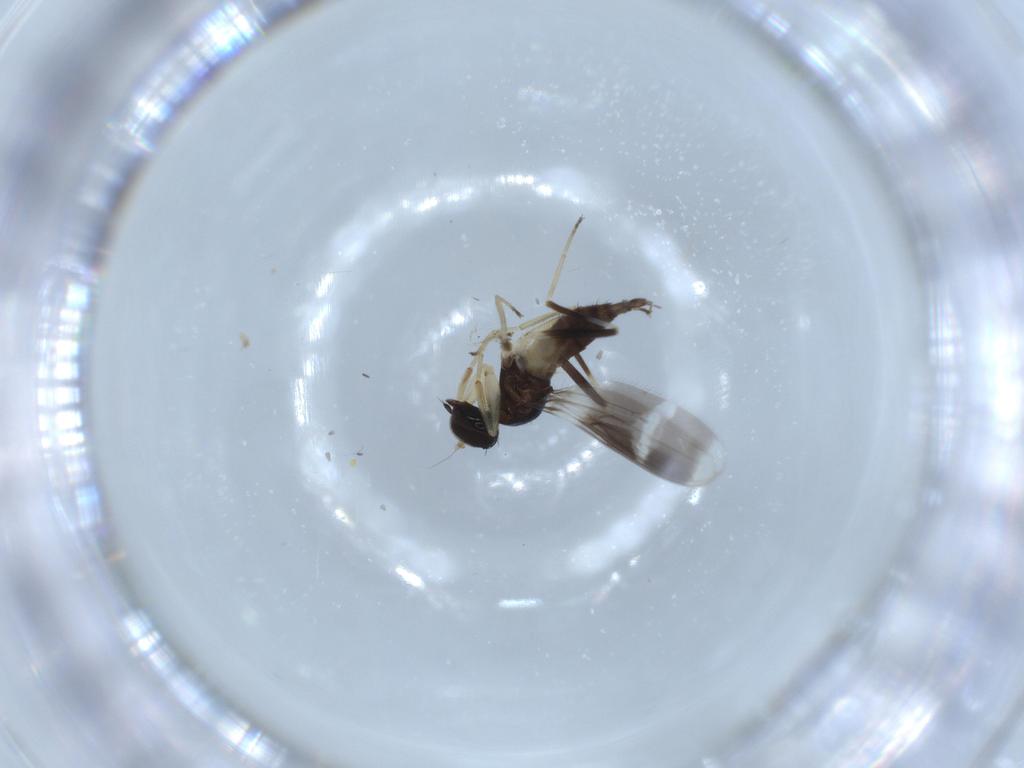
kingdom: Animalia
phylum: Arthropoda
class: Insecta
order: Diptera
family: Hybotidae
